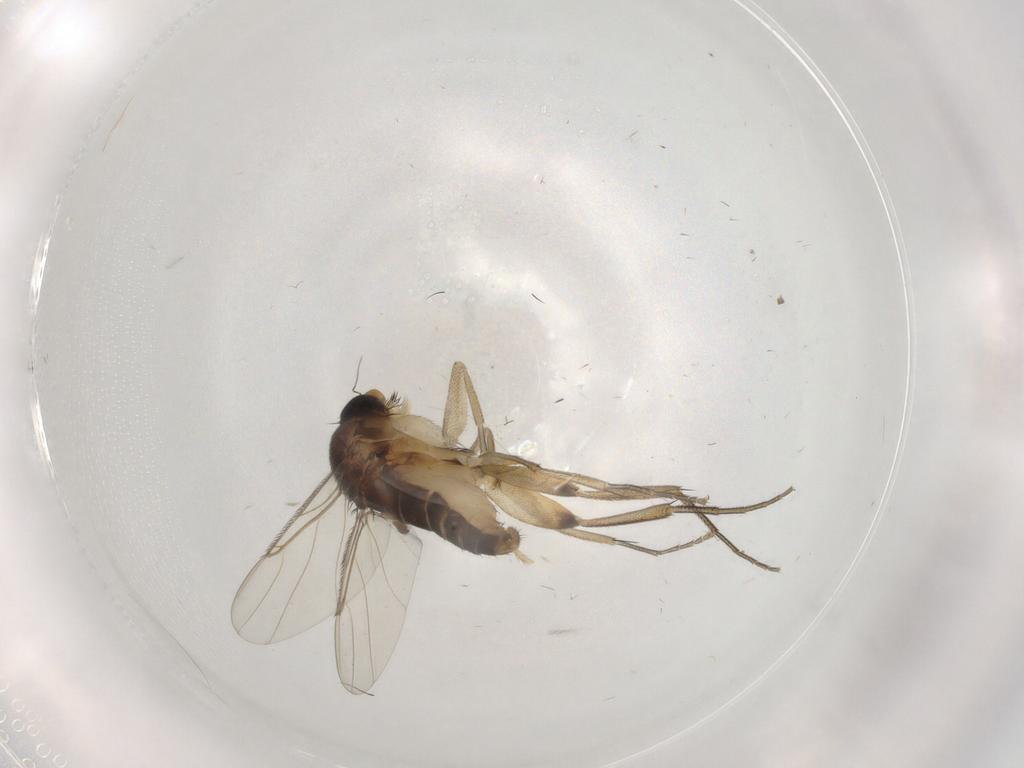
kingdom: Animalia
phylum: Arthropoda
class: Insecta
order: Diptera
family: Phoridae
